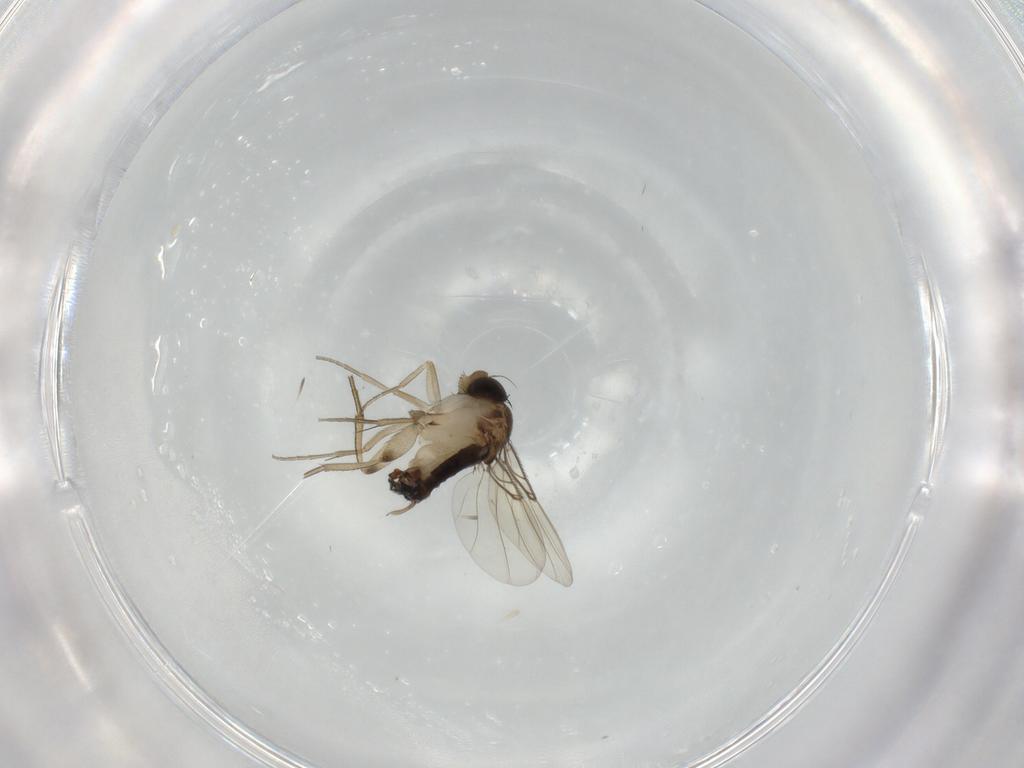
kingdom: Animalia
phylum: Arthropoda
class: Insecta
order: Diptera
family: Phoridae
